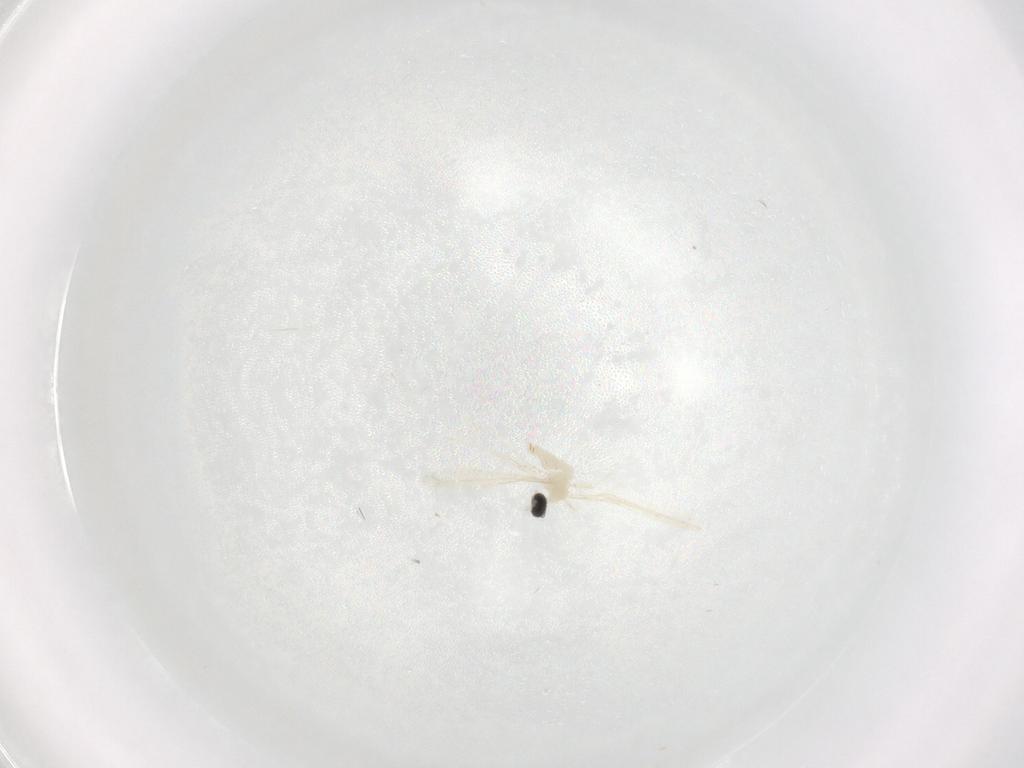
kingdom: Animalia
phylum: Arthropoda
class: Insecta
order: Diptera
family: Cecidomyiidae
